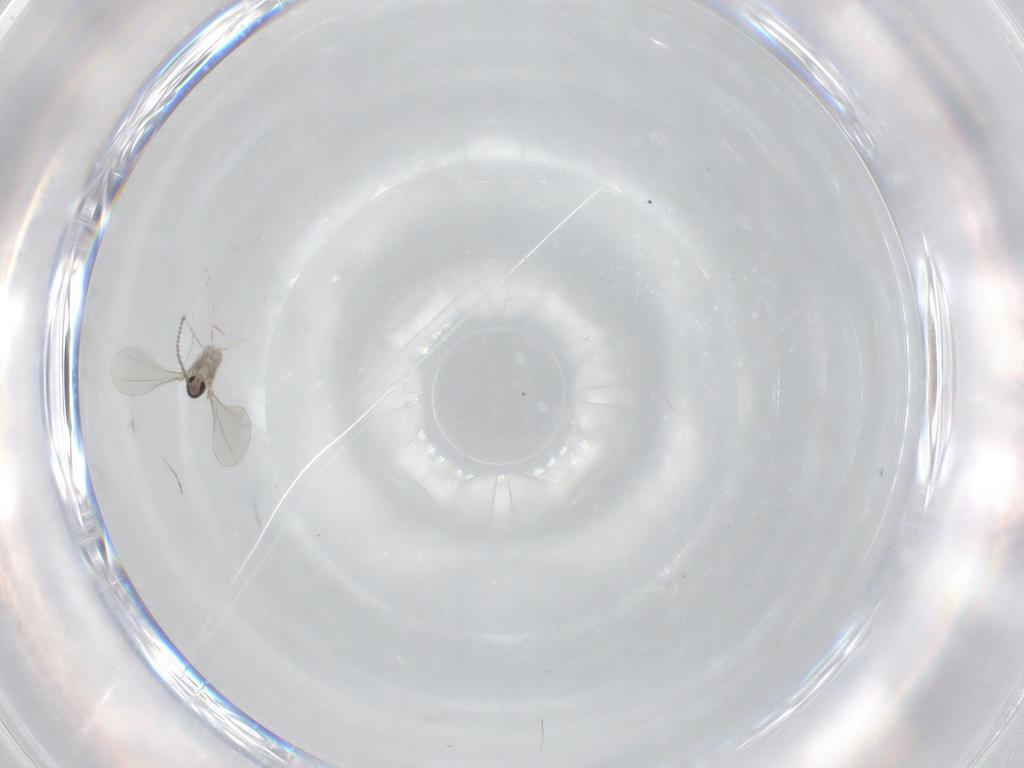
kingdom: Animalia
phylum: Arthropoda
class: Insecta
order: Diptera
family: Cecidomyiidae
